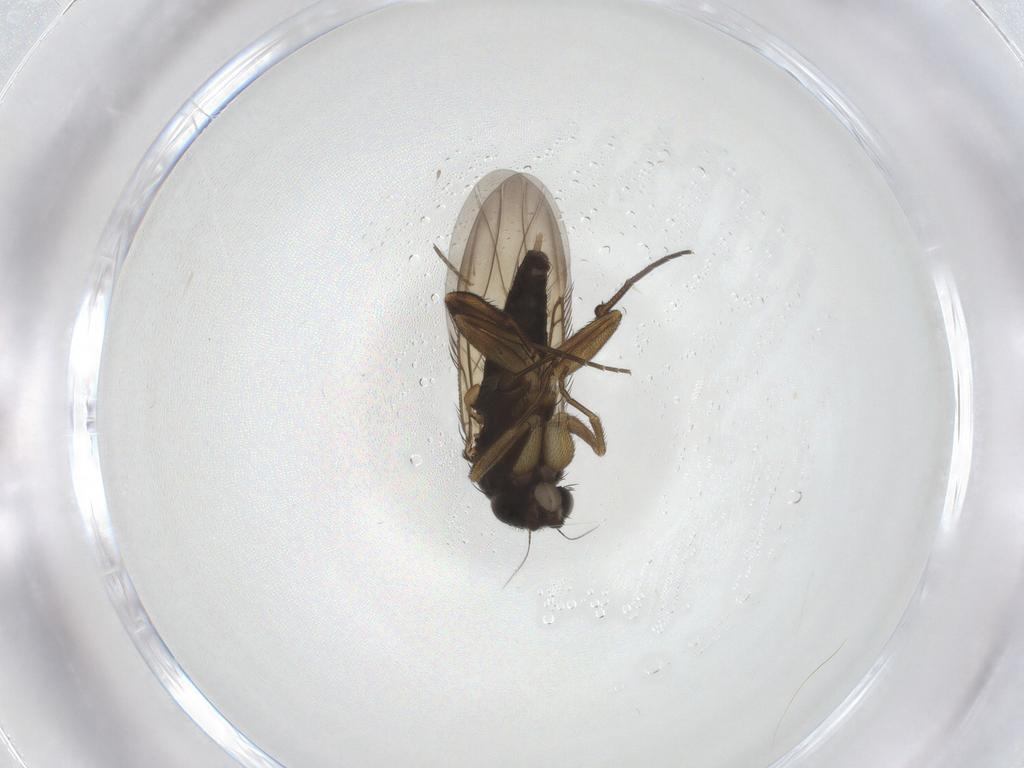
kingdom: Animalia
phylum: Arthropoda
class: Insecta
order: Diptera
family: Phoridae
